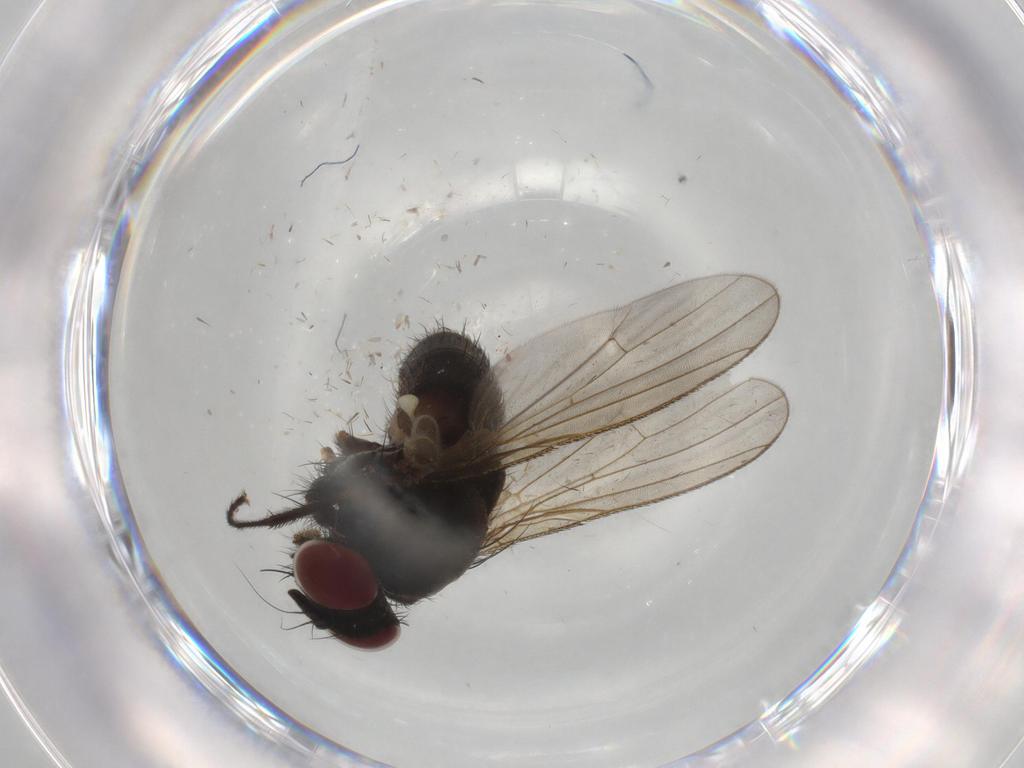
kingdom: Animalia
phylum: Arthropoda
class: Insecta
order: Diptera
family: Muscidae
